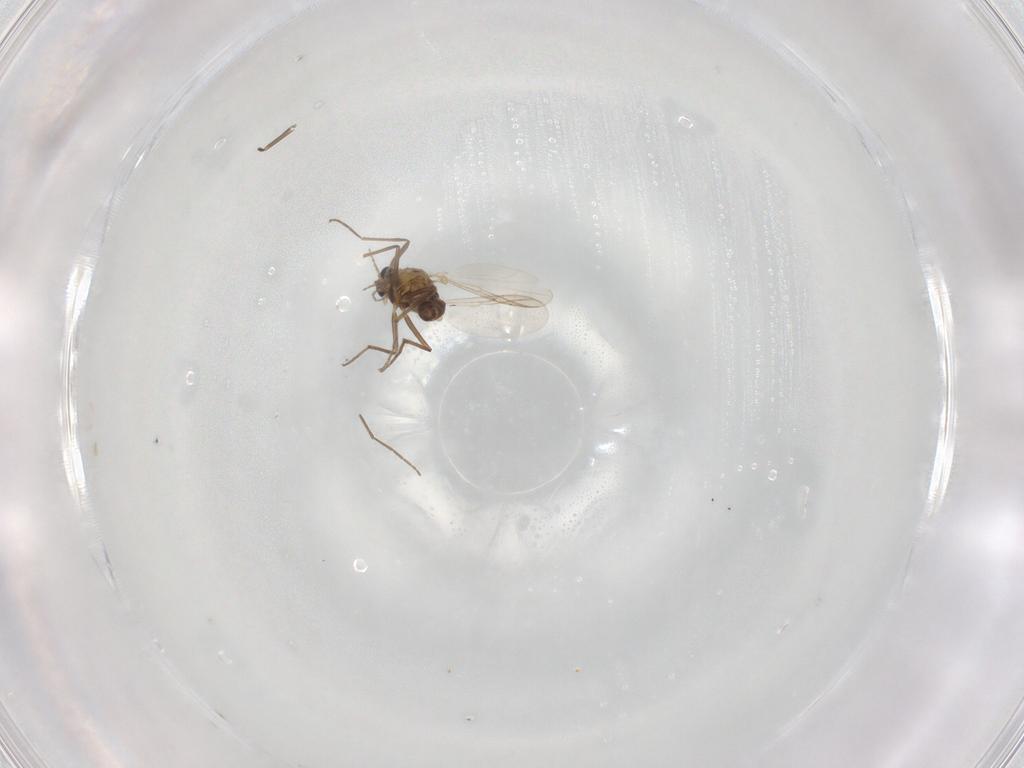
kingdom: Animalia
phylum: Arthropoda
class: Insecta
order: Diptera
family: Chironomidae
